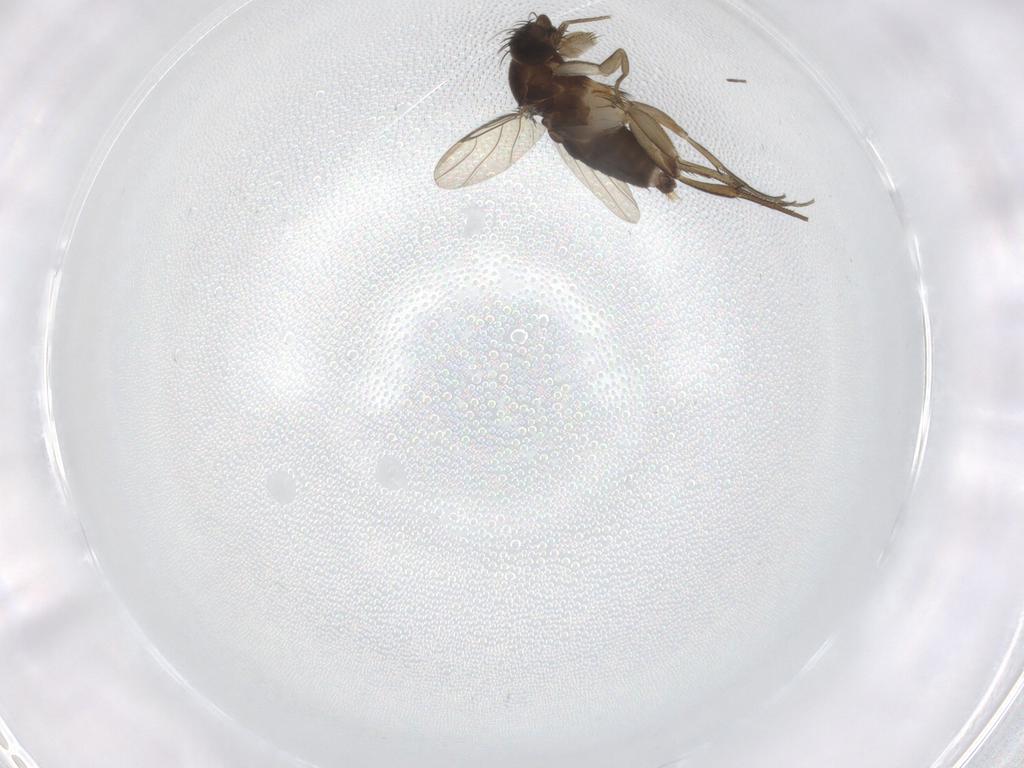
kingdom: Animalia
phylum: Arthropoda
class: Insecta
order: Diptera
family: Phoridae
